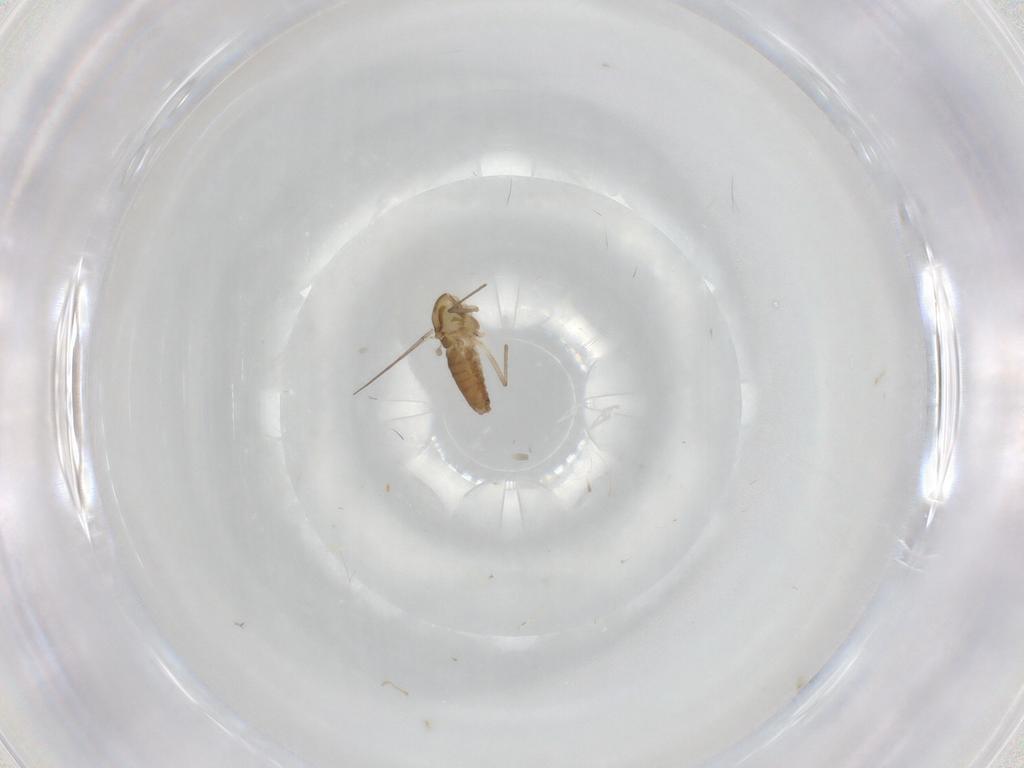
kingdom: Animalia
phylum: Arthropoda
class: Insecta
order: Diptera
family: Chironomidae
